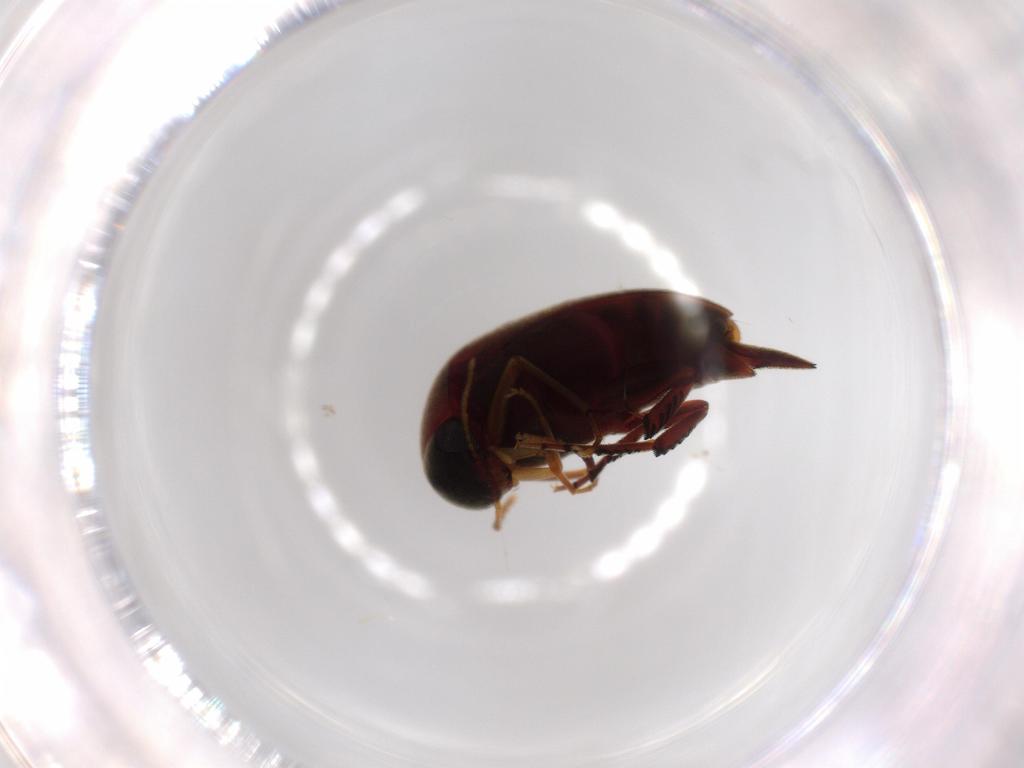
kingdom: Animalia
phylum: Arthropoda
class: Insecta
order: Coleoptera
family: Mordellidae
